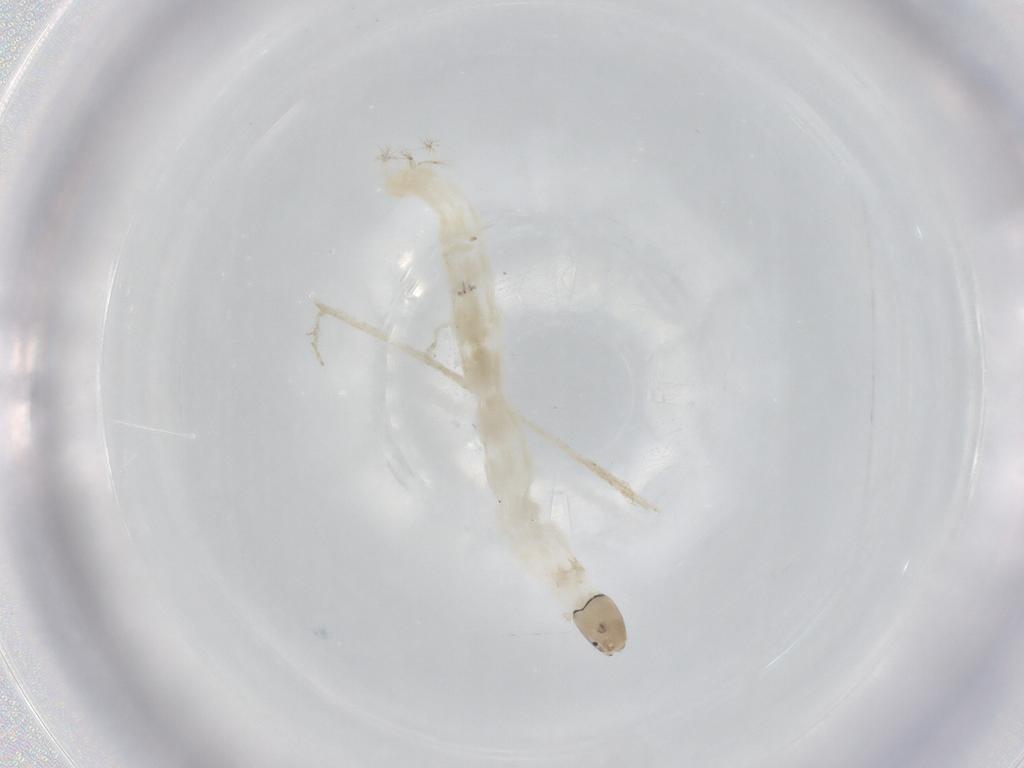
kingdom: Animalia
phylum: Arthropoda
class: Insecta
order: Diptera
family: Chironomidae
